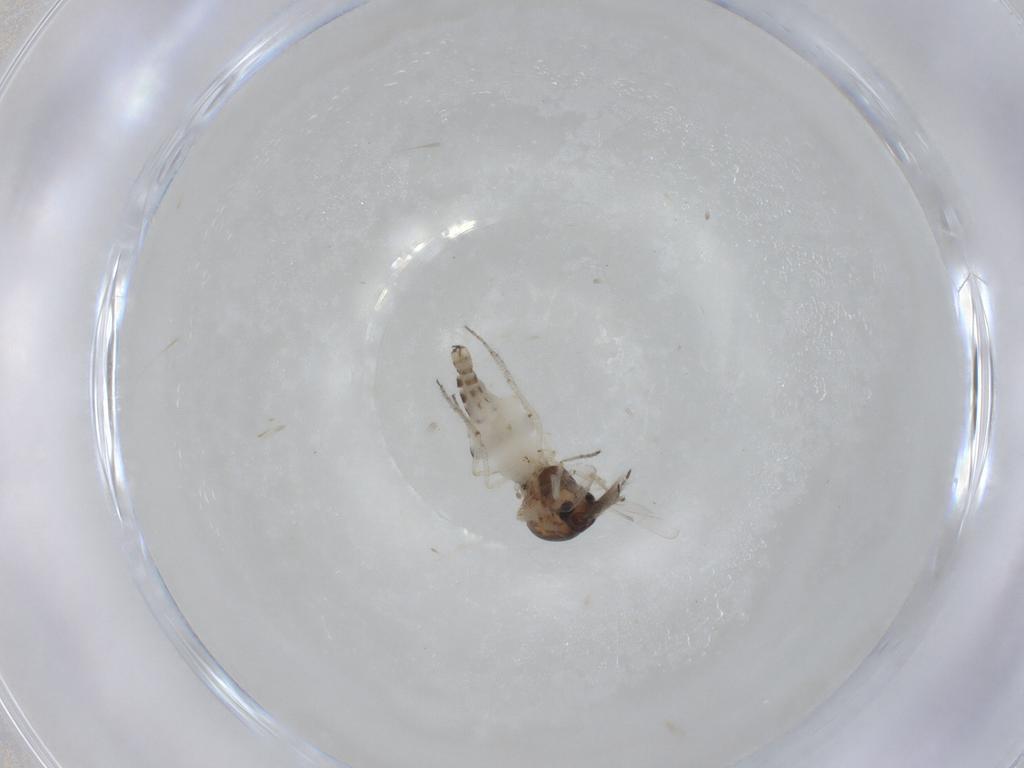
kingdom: Animalia
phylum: Arthropoda
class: Insecta
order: Diptera
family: Ceratopogonidae
